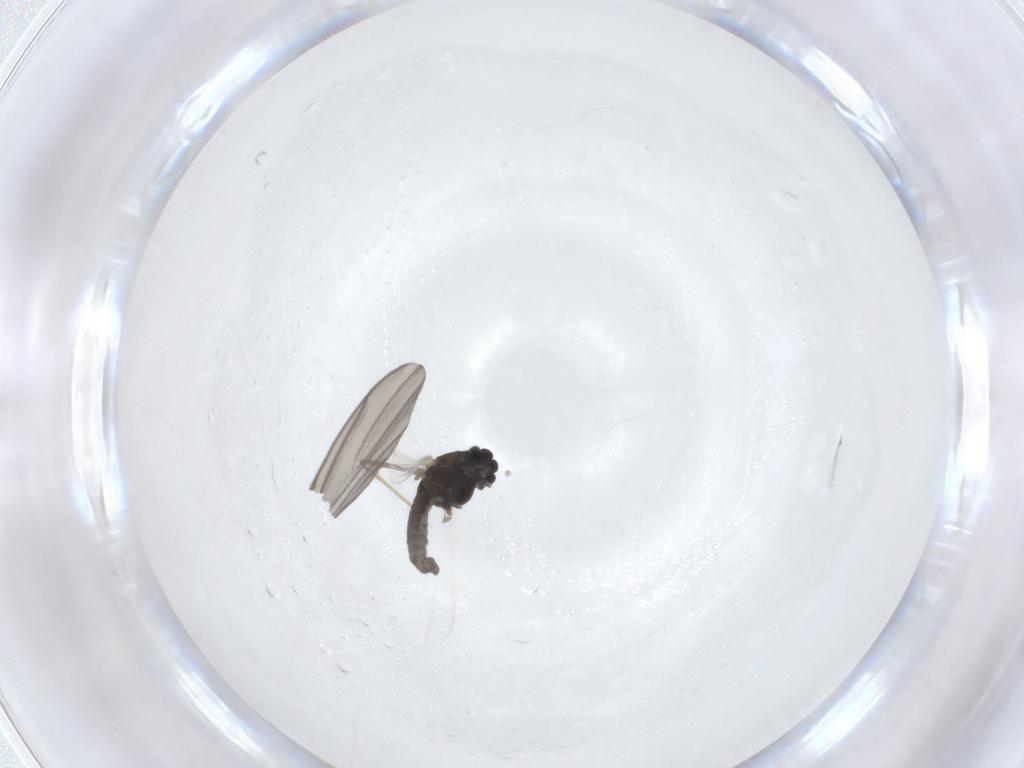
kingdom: Animalia
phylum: Arthropoda
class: Insecta
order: Diptera
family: Chironomidae
